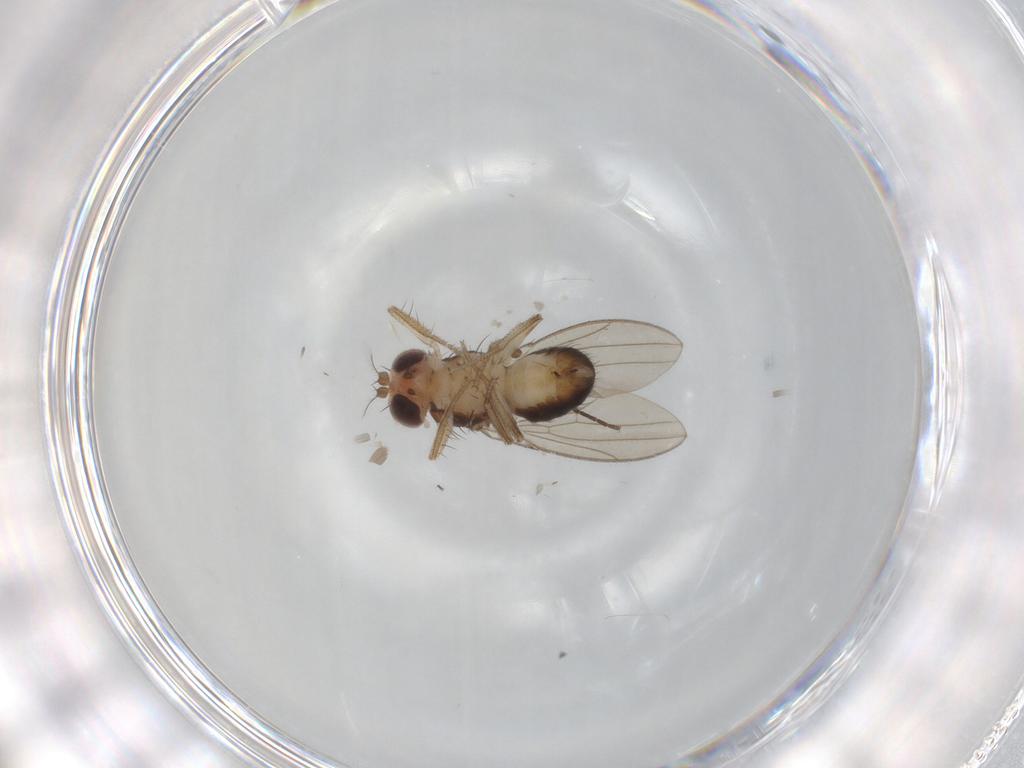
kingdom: Animalia
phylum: Arthropoda
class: Insecta
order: Diptera
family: Drosophilidae
